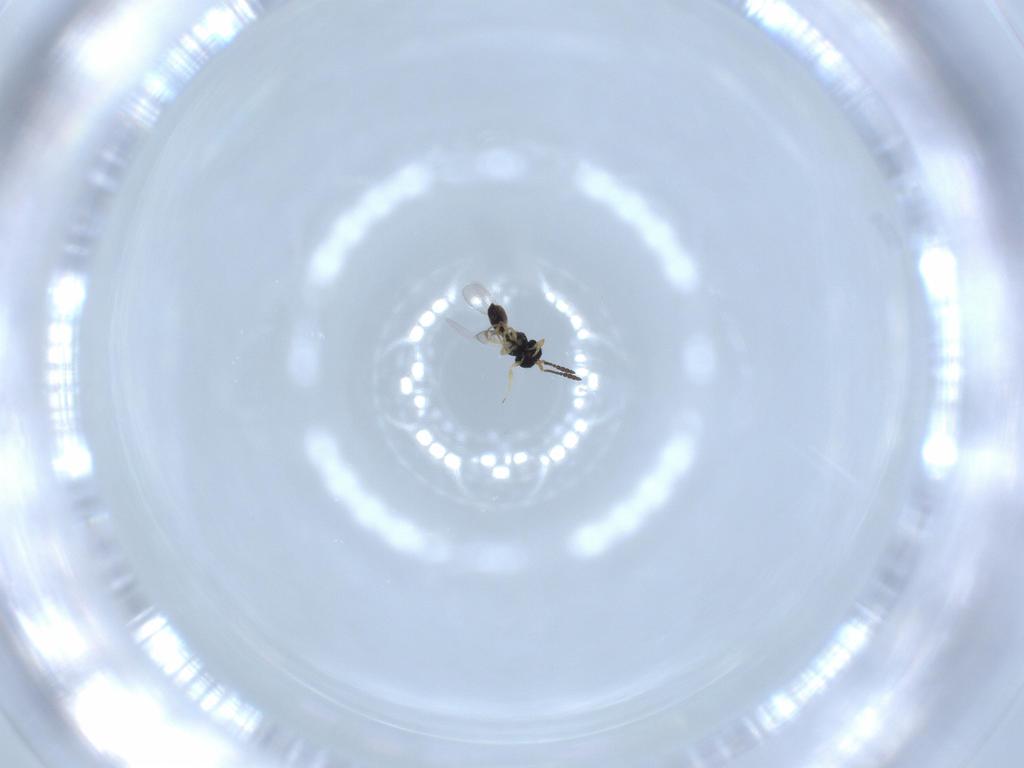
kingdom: Animalia
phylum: Arthropoda
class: Insecta
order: Hymenoptera
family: Scelionidae
